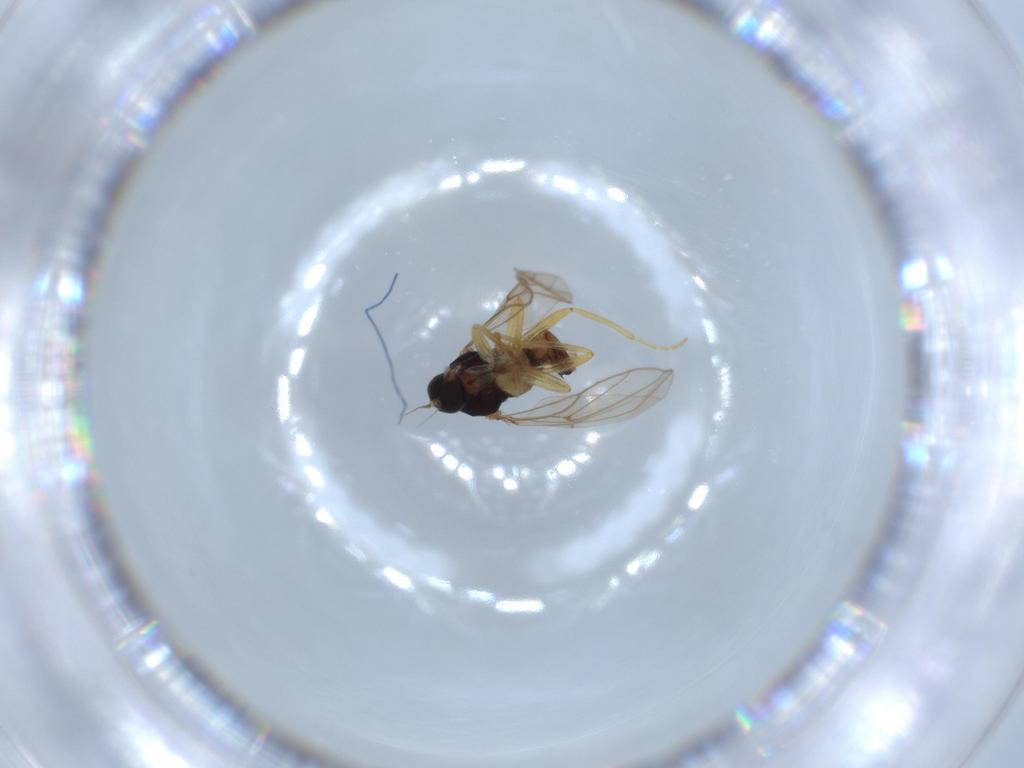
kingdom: Animalia
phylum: Arthropoda
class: Insecta
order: Diptera
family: Hybotidae
